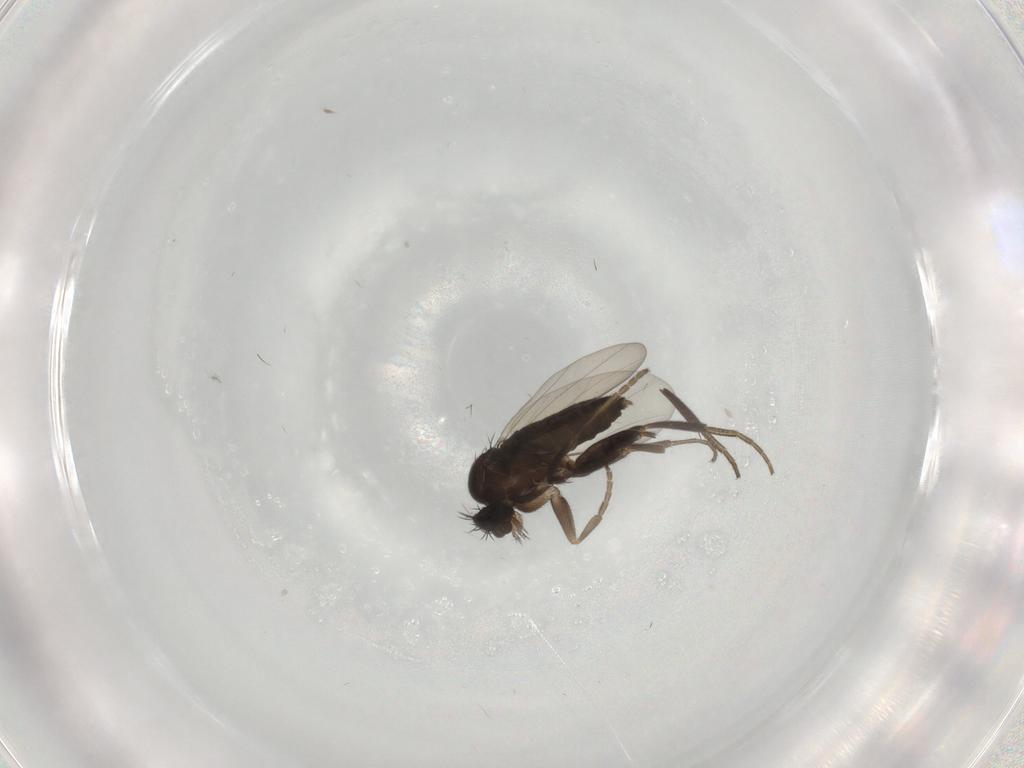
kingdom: Animalia
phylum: Arthropoda
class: Insecta
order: Diptera
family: Phoridae
